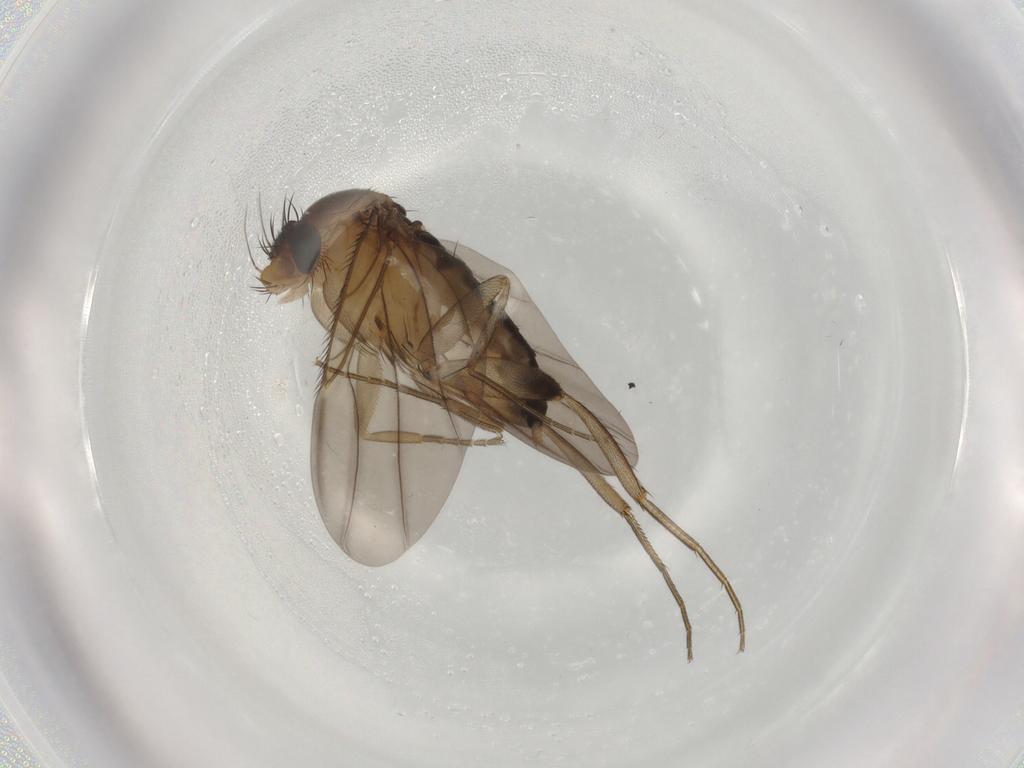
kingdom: Animalia
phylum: Arthropoda
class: Insecta
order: Diptera
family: Phoridae
